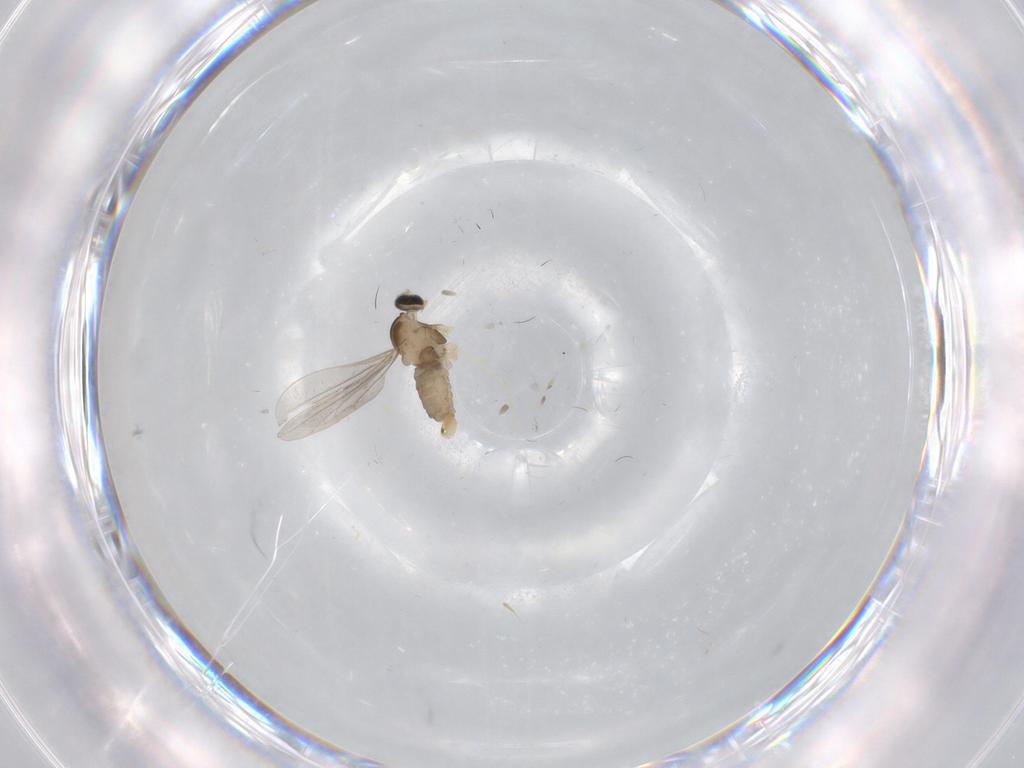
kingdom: Animalia
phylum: Arthropoda
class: Insecta
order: Diptera
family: Cecidomyiidae
